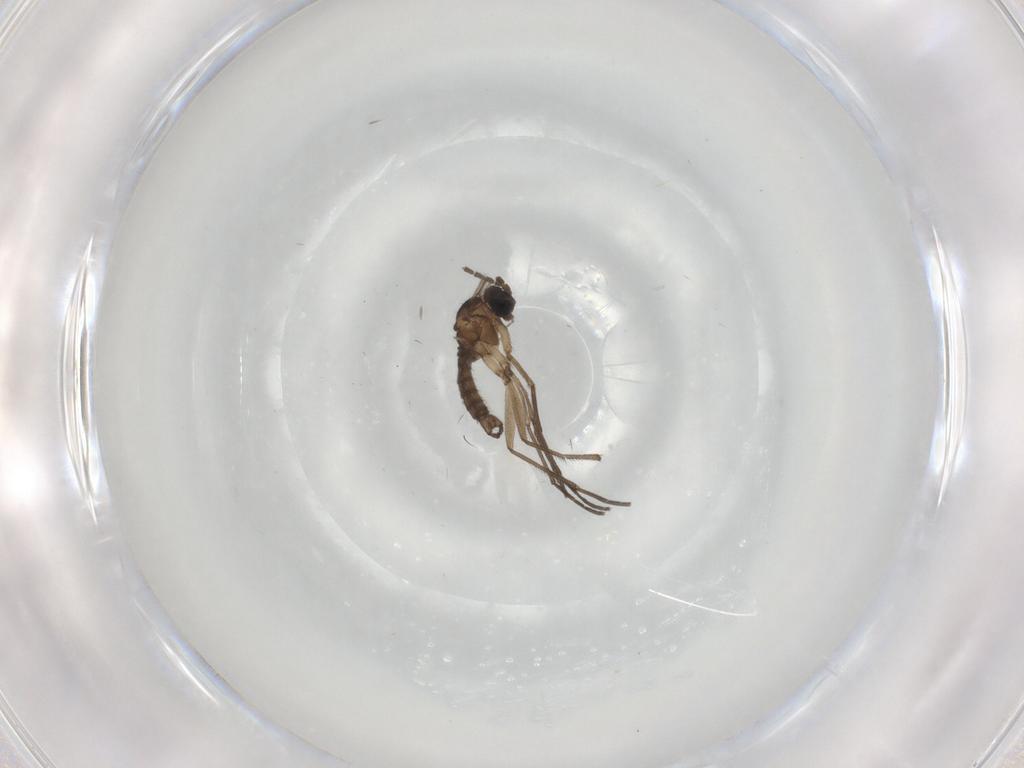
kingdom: Animalia
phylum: Arthropoda
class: Insecta
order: Diptera
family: Sciaridae
